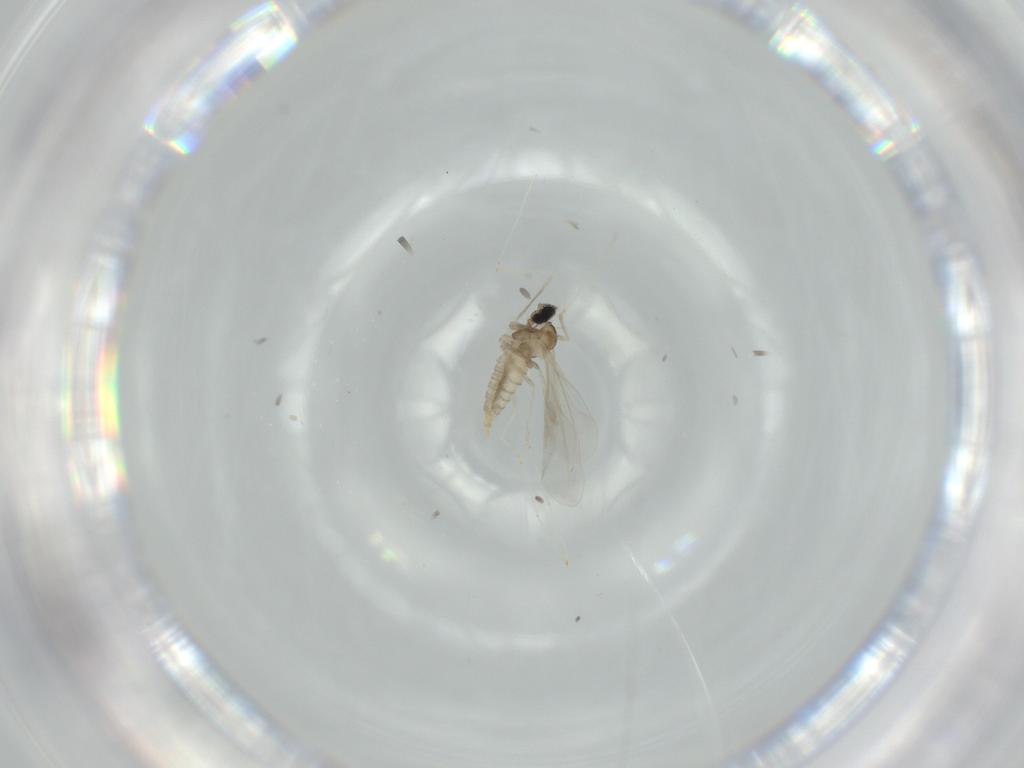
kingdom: Animalia
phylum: Arthropoda
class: Insecta
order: Diptera
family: Cecidomyiidae
